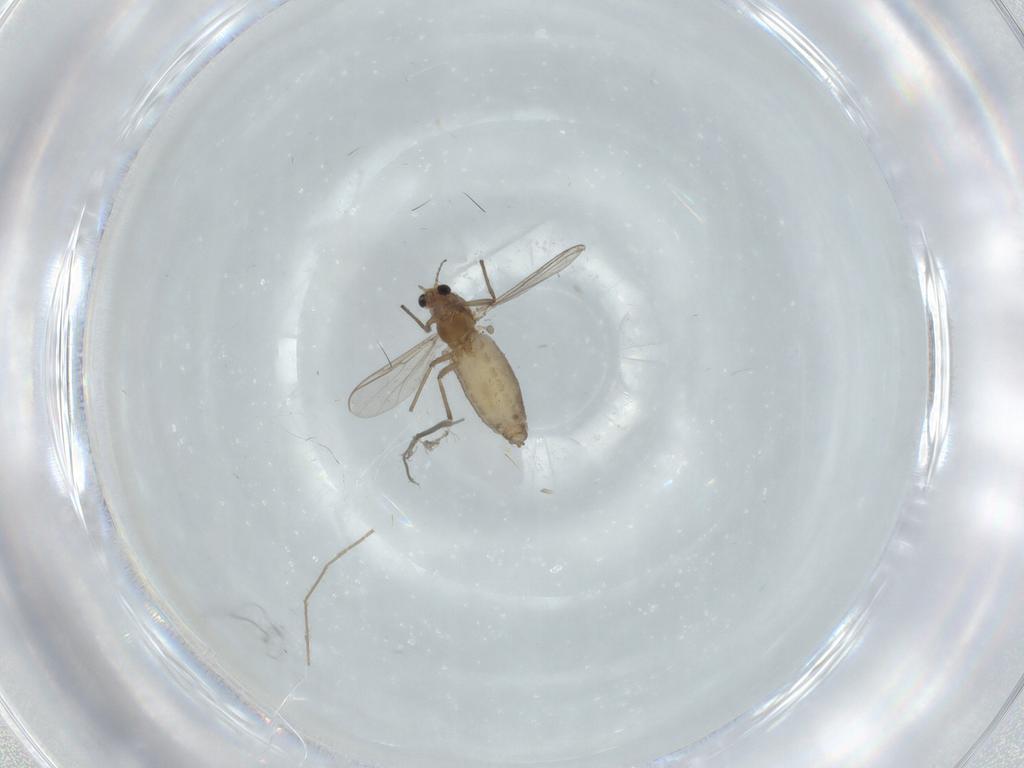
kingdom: Animalia
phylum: Arthropoda
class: Insecta
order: Diptera
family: Chironomidae
